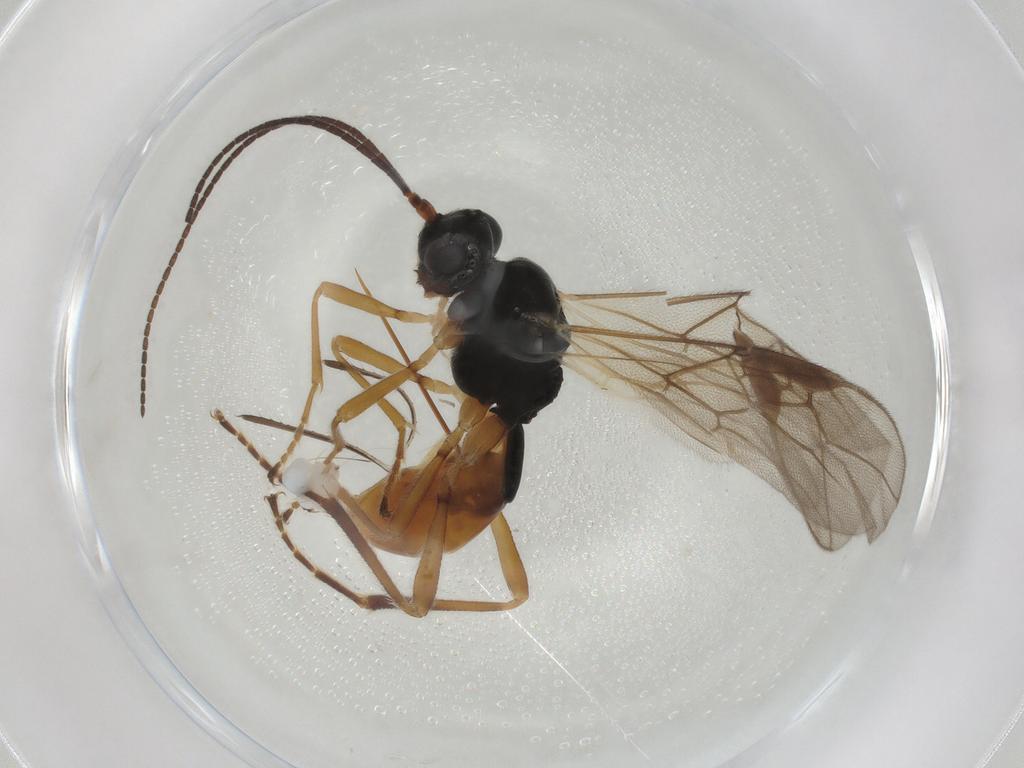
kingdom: Animalia
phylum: Arthropoda
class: Insecta
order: Hymenoptera
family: Braconidae
